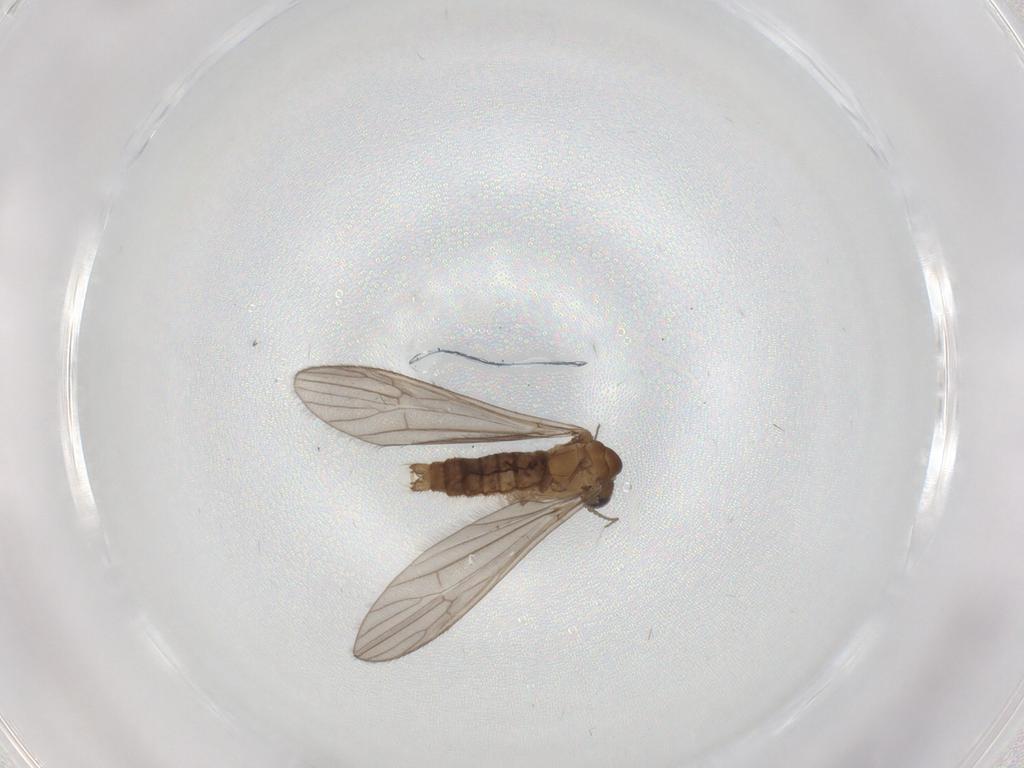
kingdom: Animalia
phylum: Arthropoda
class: Insecta
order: Diptera
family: Limoniidae
